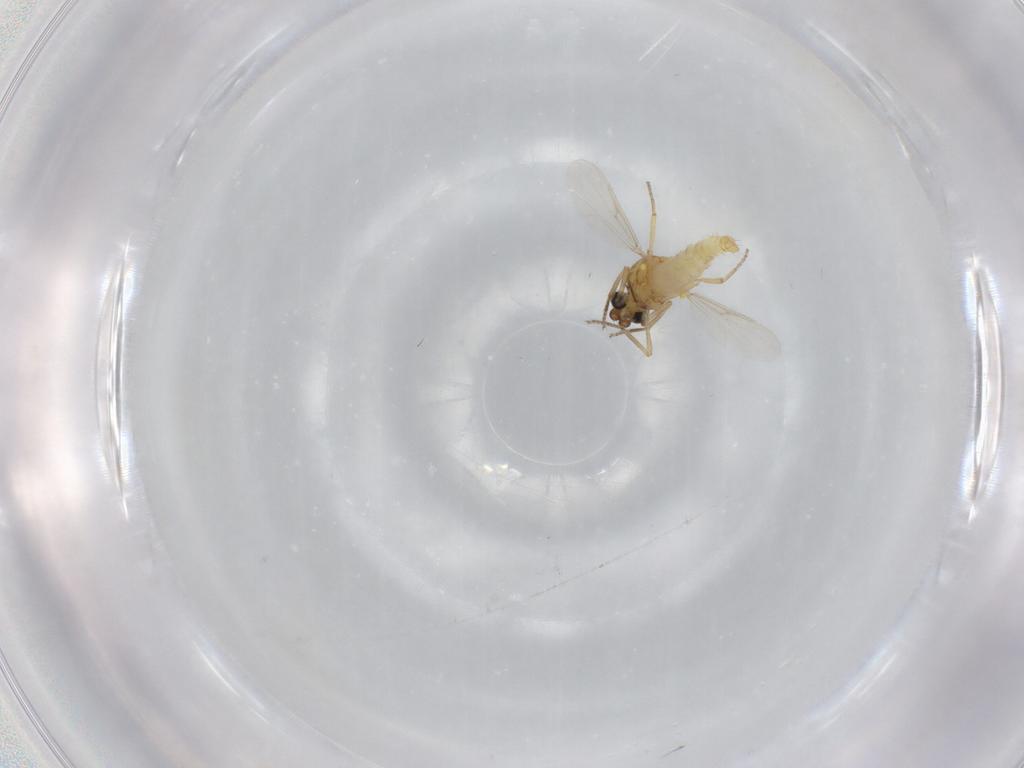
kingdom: Animalia
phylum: Arthropoda
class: Insecta
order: Diptera
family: Ceratopogonidae
